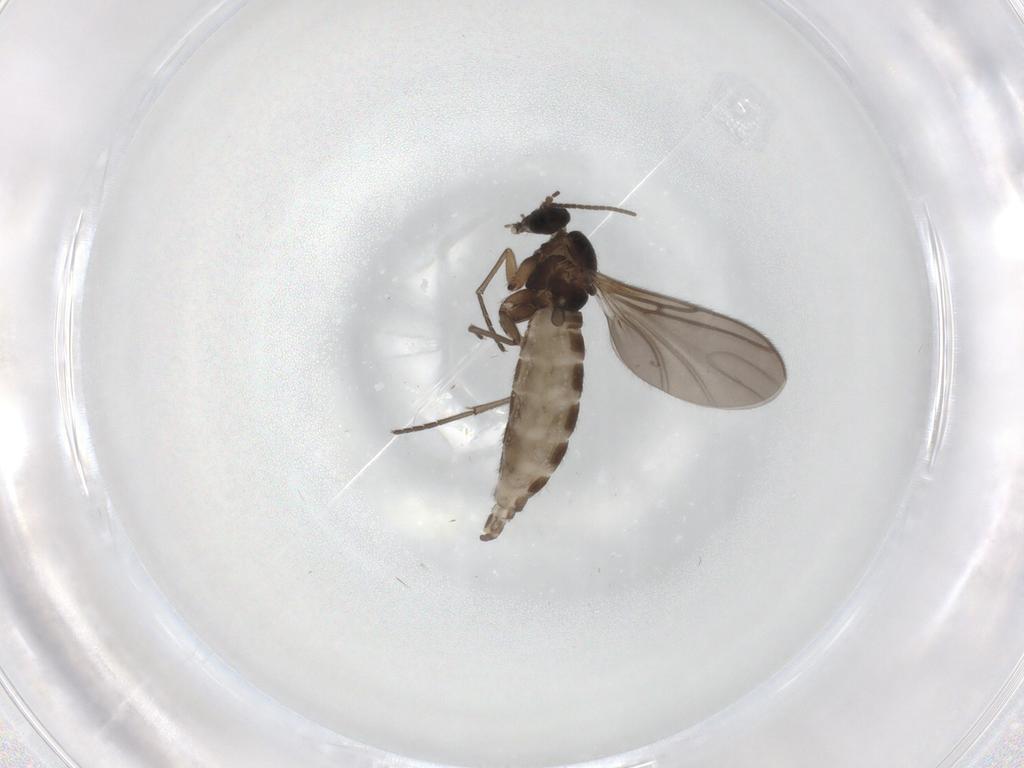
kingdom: Animalia
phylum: Arthropoda
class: Insecta
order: Diptera
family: Sciaridae
